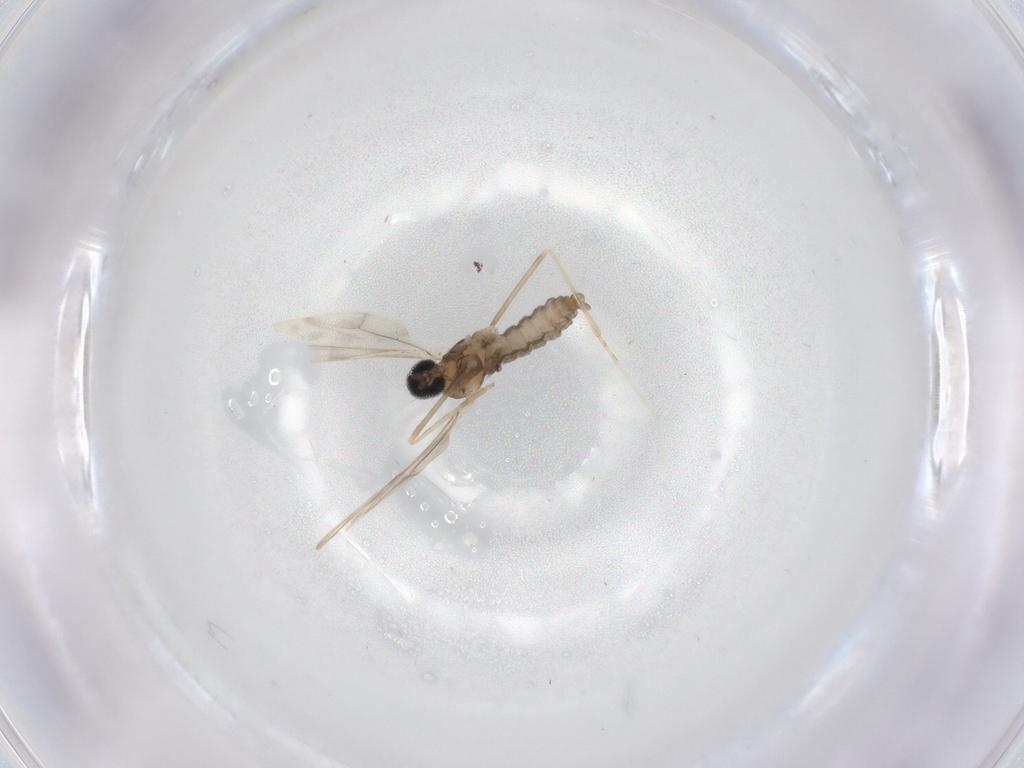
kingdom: Animalia
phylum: Arthropoda
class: Insecta
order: Diptera
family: Cecidomyiidae
